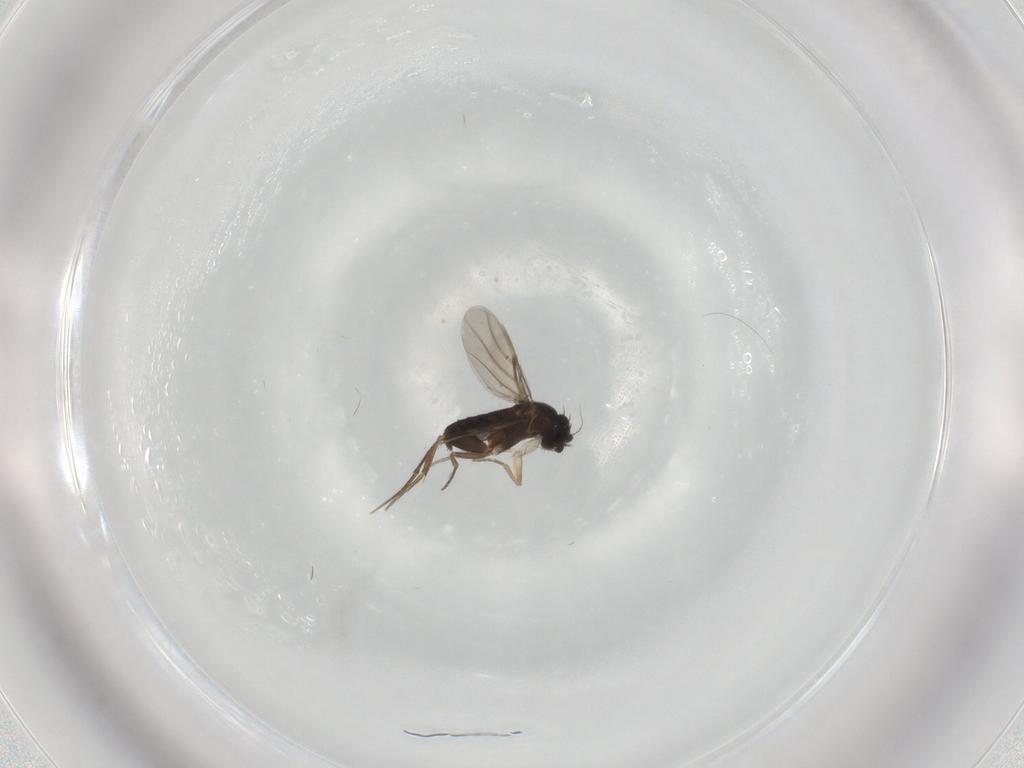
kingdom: Animalia
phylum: Arthropoda
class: Insecta
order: Diptera
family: Phoridae
